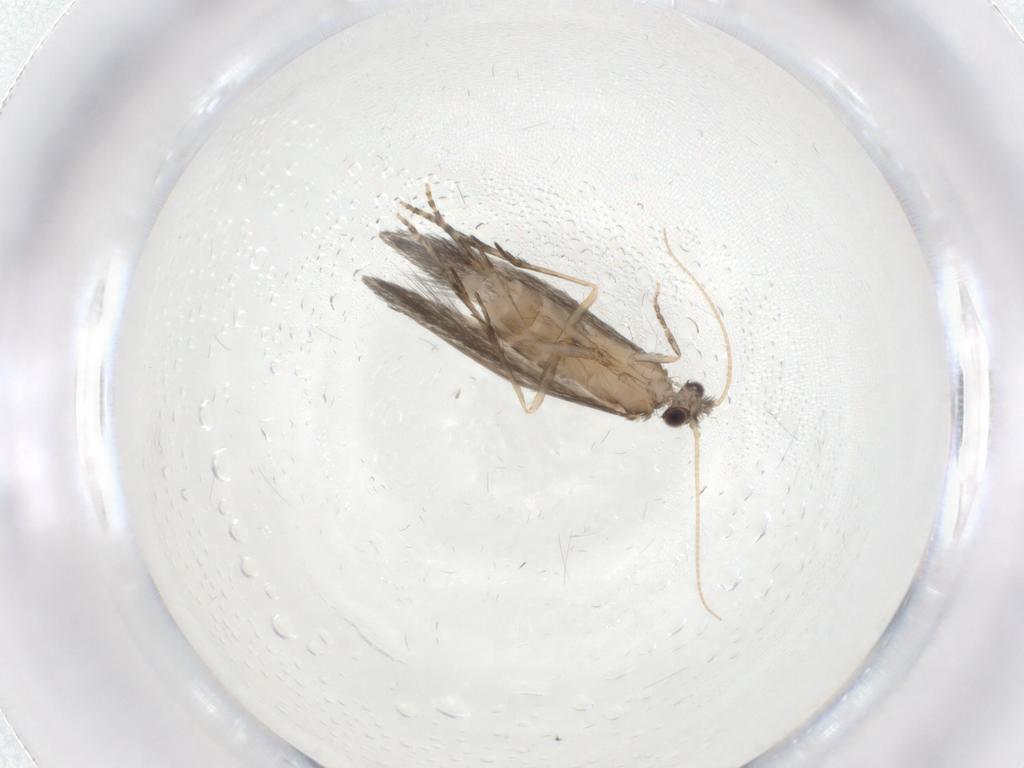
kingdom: Animalia
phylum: Arthropoda
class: Insecta
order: Trichoptera
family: Hydroptilidae
